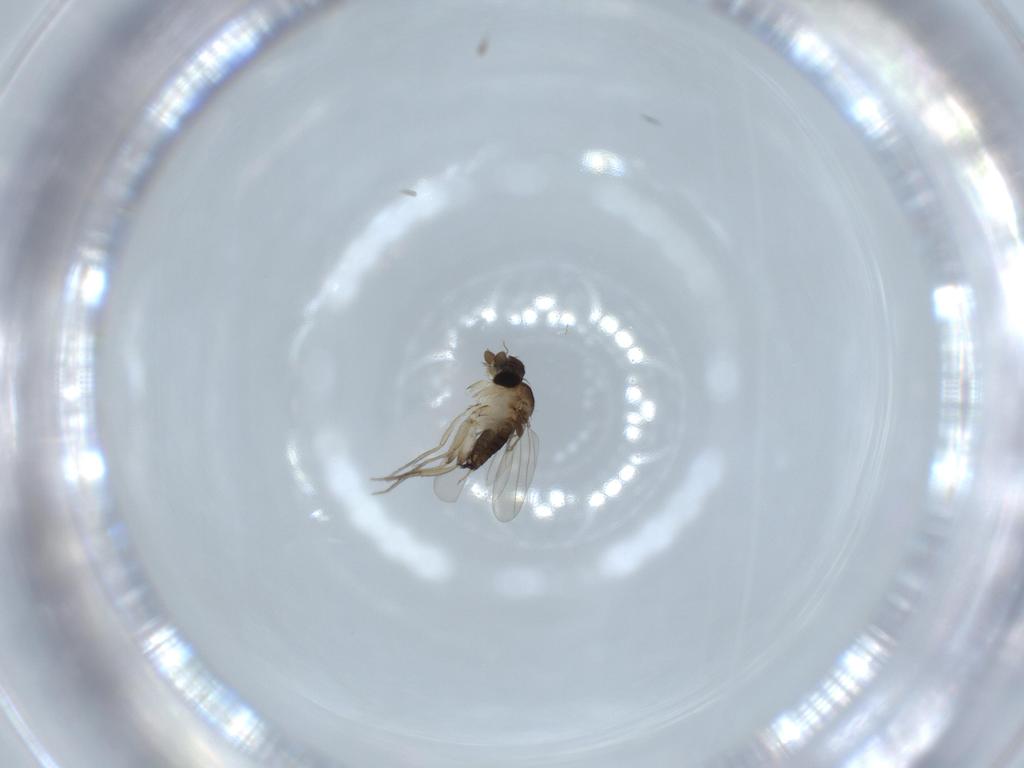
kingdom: Animalia
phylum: Arthropoda
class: Insecta
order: Diptera
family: Phoridae
